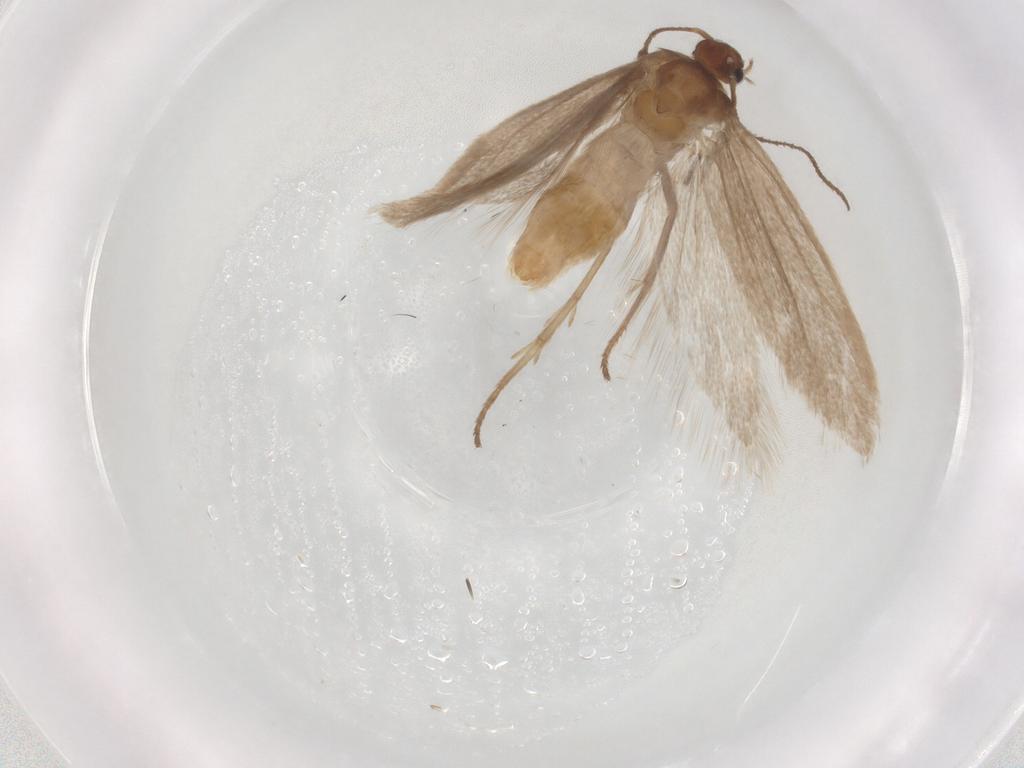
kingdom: Animalia
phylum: Arthropoda
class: Insecta
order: Lepidoptera
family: Limacodidae
